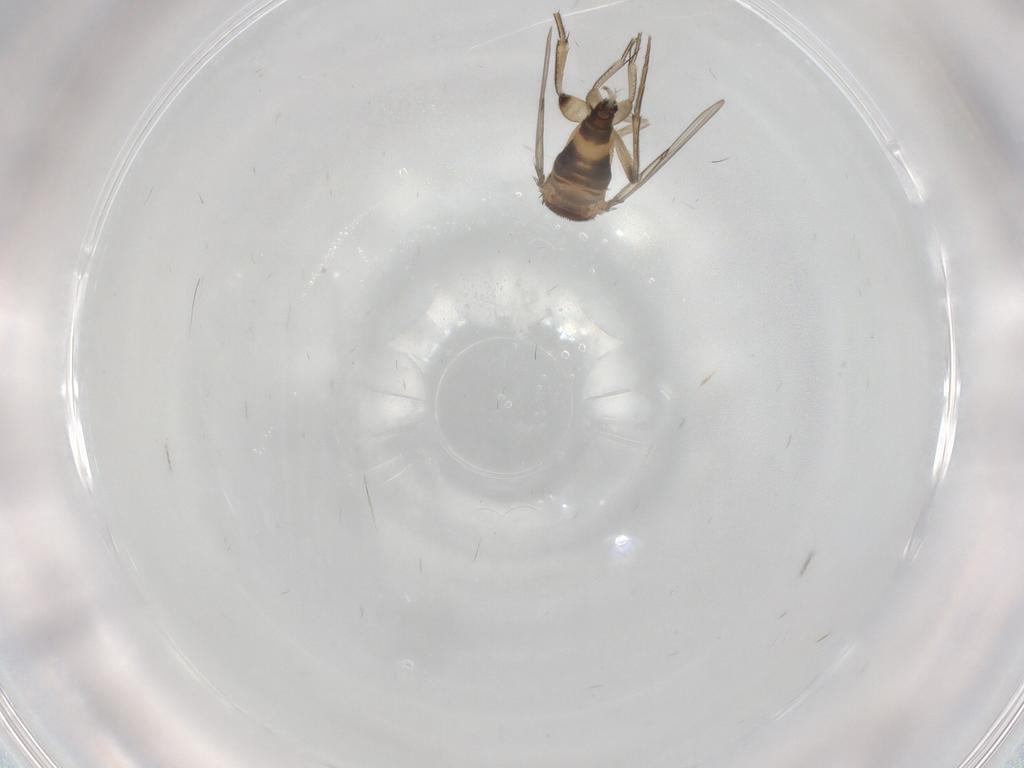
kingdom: Animalia
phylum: Arthropoda
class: Insecta
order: Diptera
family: Phoridae
